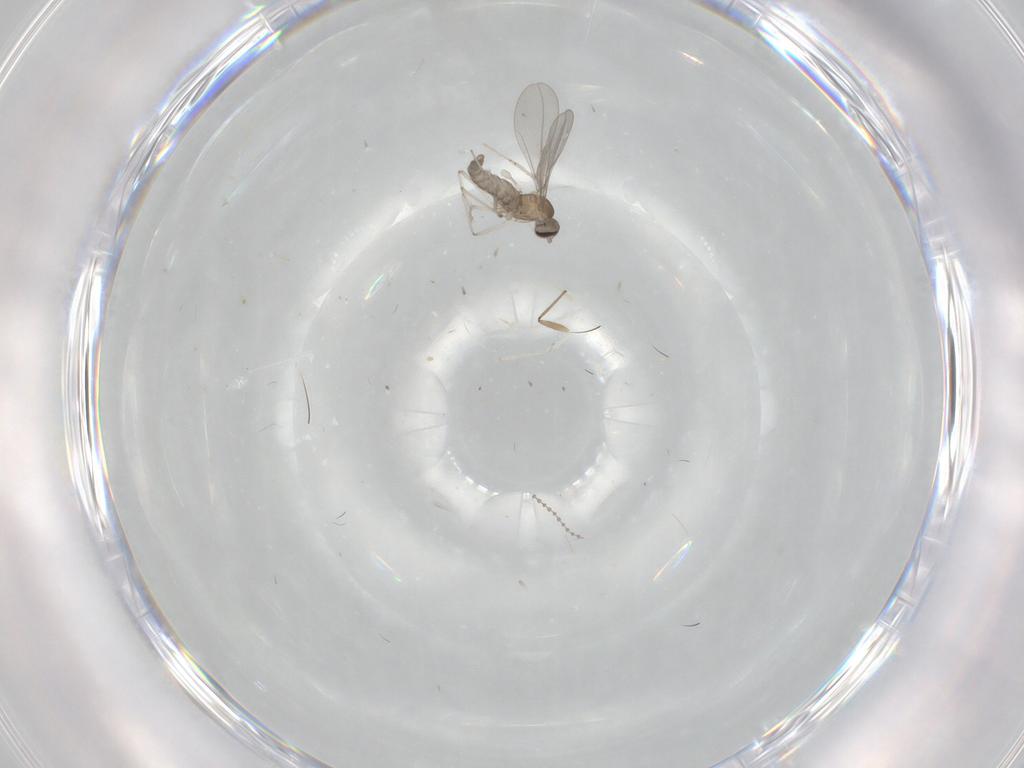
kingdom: Animalia
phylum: Arthropoda
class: Insecta
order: Diptera
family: Chironomidae
